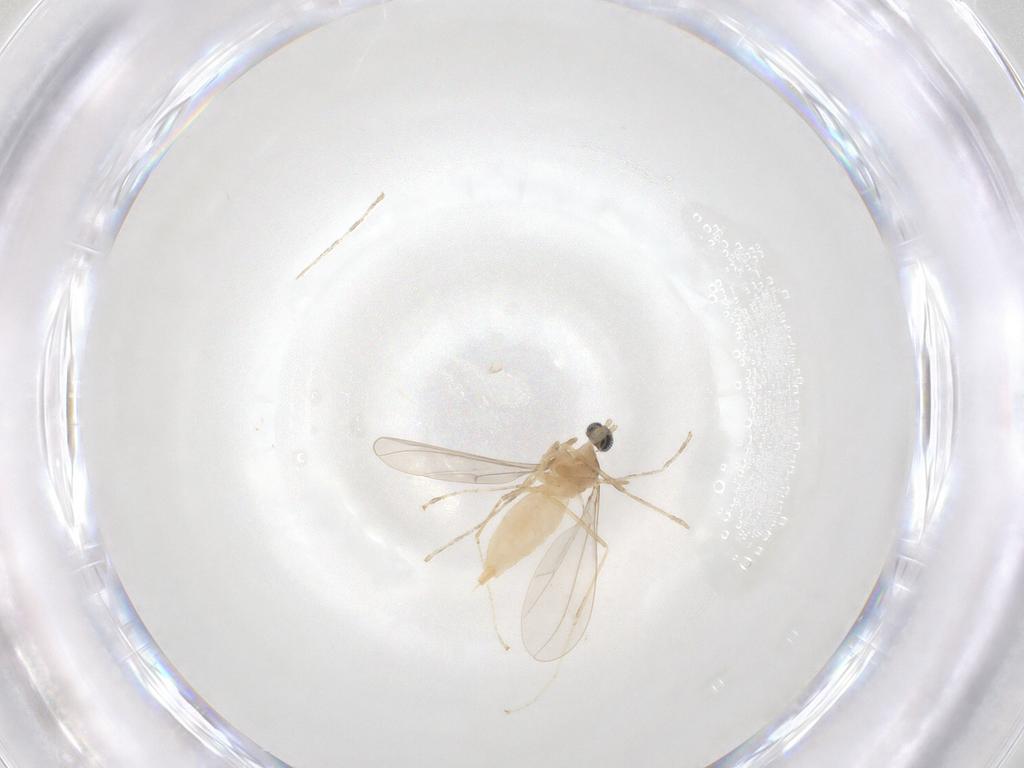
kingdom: Animalia
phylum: Arthropoda
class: Insecta
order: Diptera
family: Cecidomyiidae
